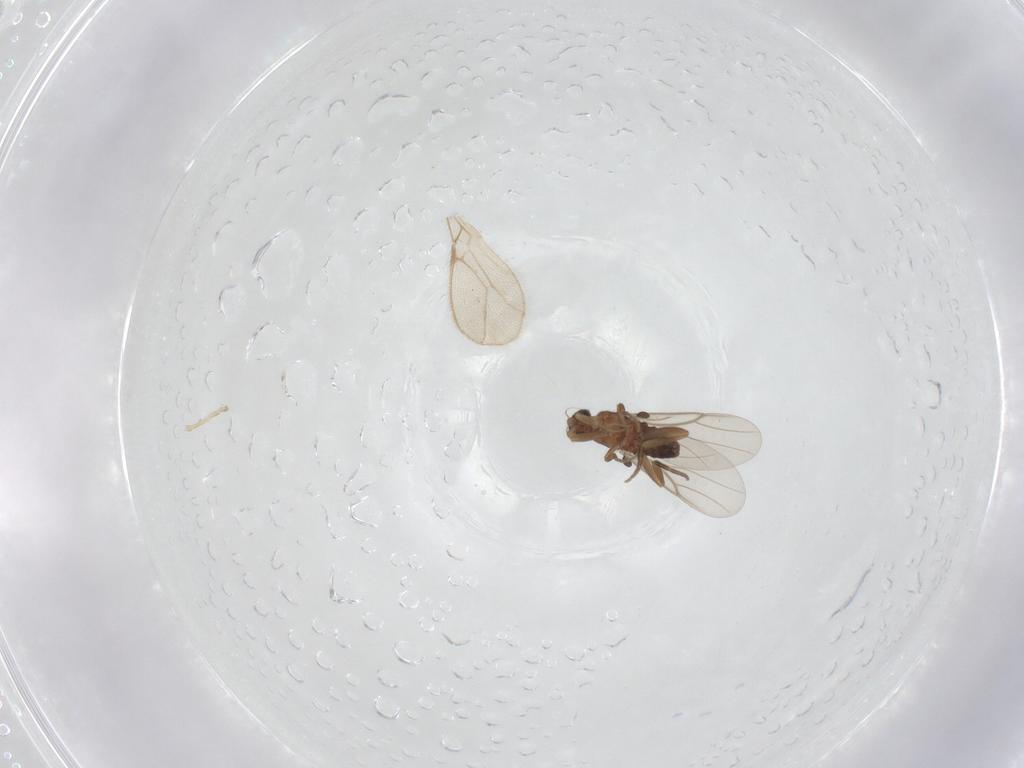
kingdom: Animalia
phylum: Arthropoda
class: Insecta
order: Diptera
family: Phoridae
